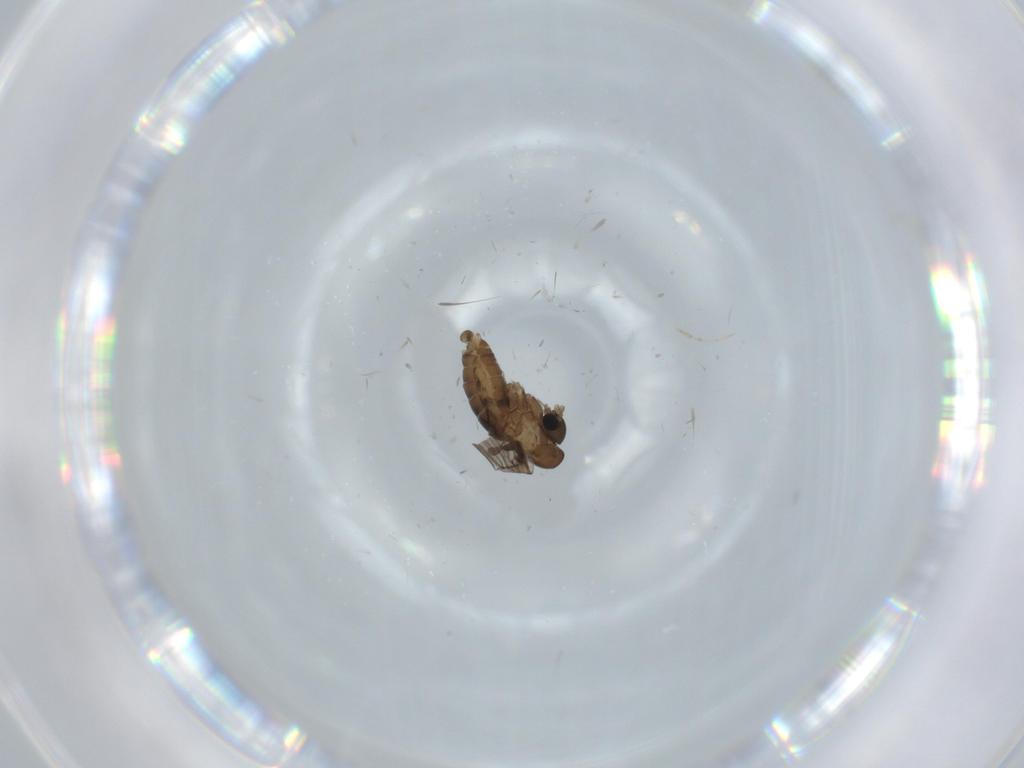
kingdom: Animalia
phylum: Arthropoda
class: Insecta
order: Diptera
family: Psychodidae
